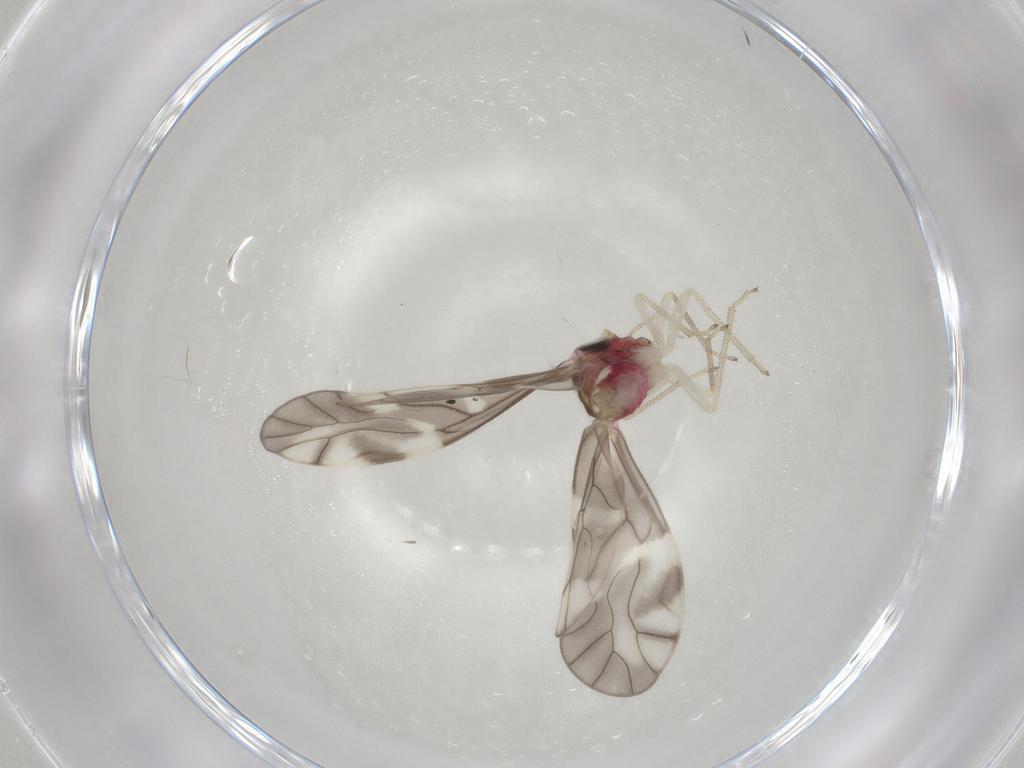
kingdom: Animalia
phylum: Arthropoda
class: Insecta
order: Psocodea
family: Caeciliusidae
